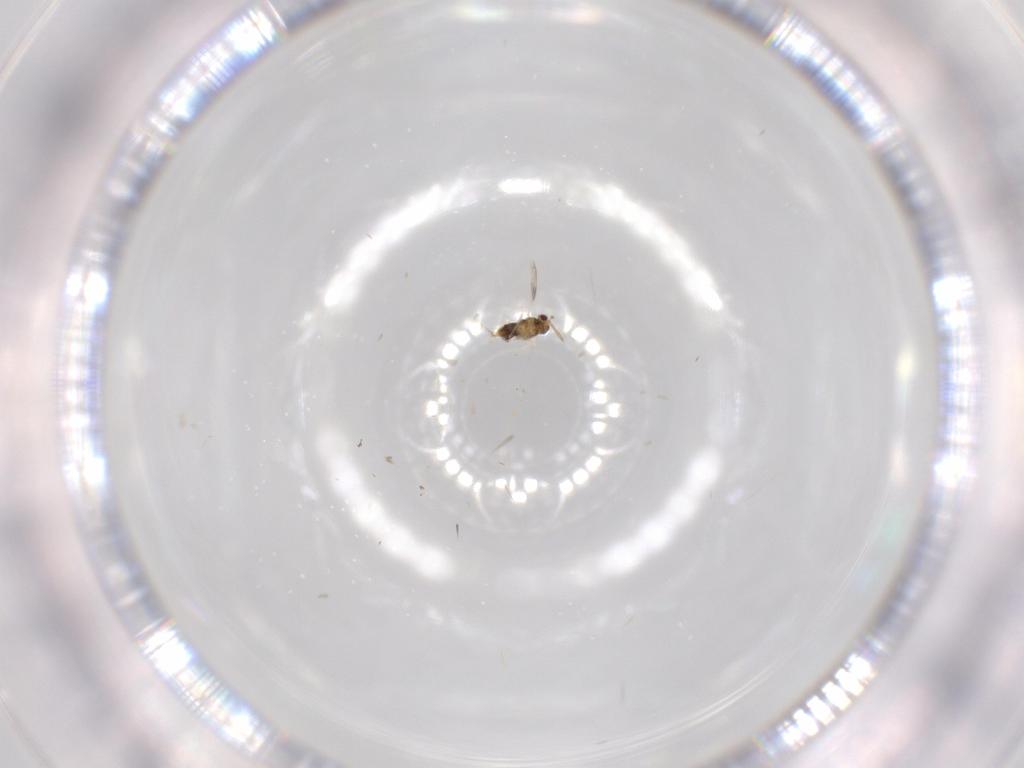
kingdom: Animalia
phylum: Arthropoda
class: Insecta
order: Hymenoptera
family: Aphelinidae
